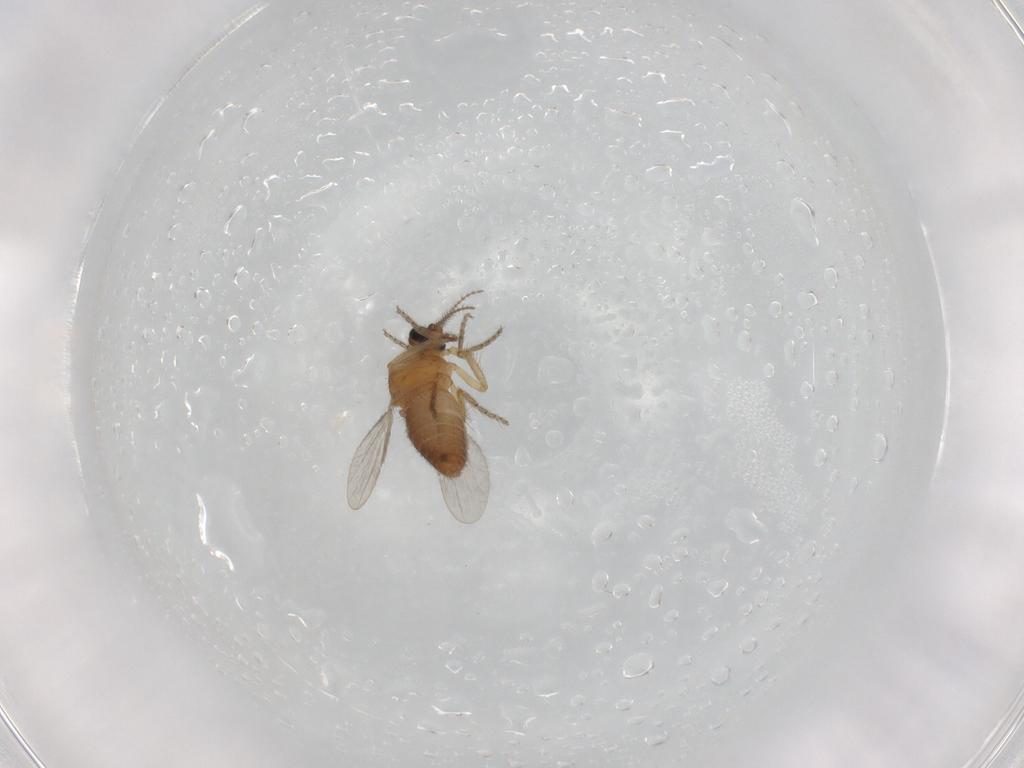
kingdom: Animalia
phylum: Arthropoda
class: Insecta
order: Diptera
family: Ceratopogonidae
